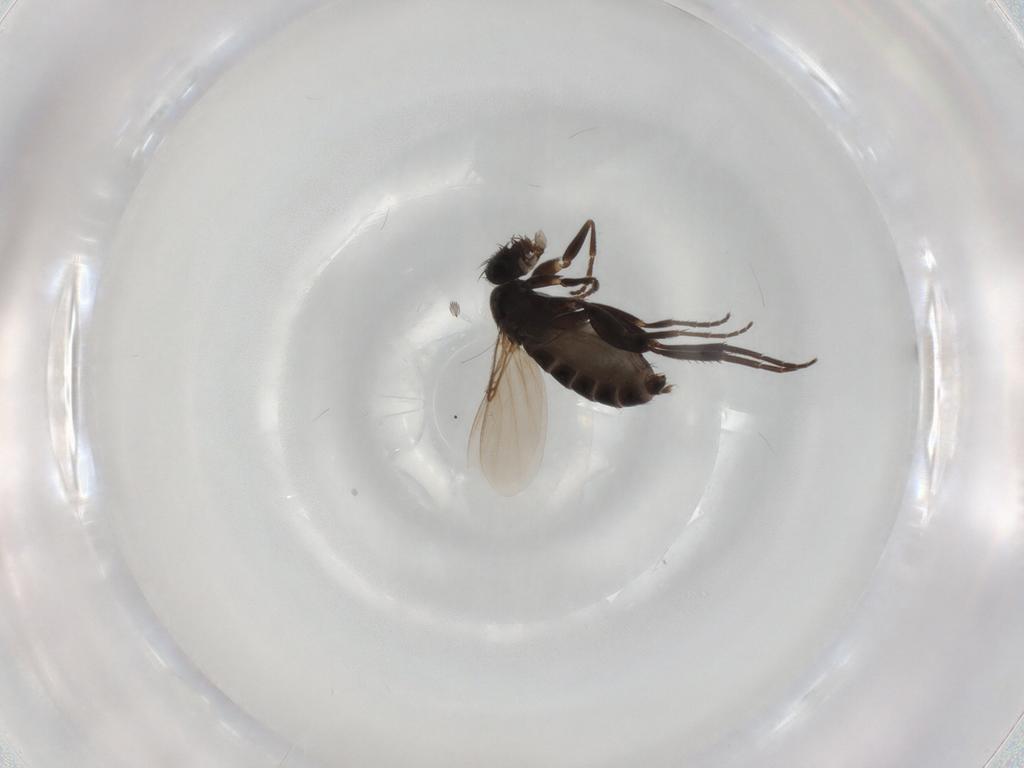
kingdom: Animalia
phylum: Arthropoda
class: Insecta
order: Diptera
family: Phoridae
